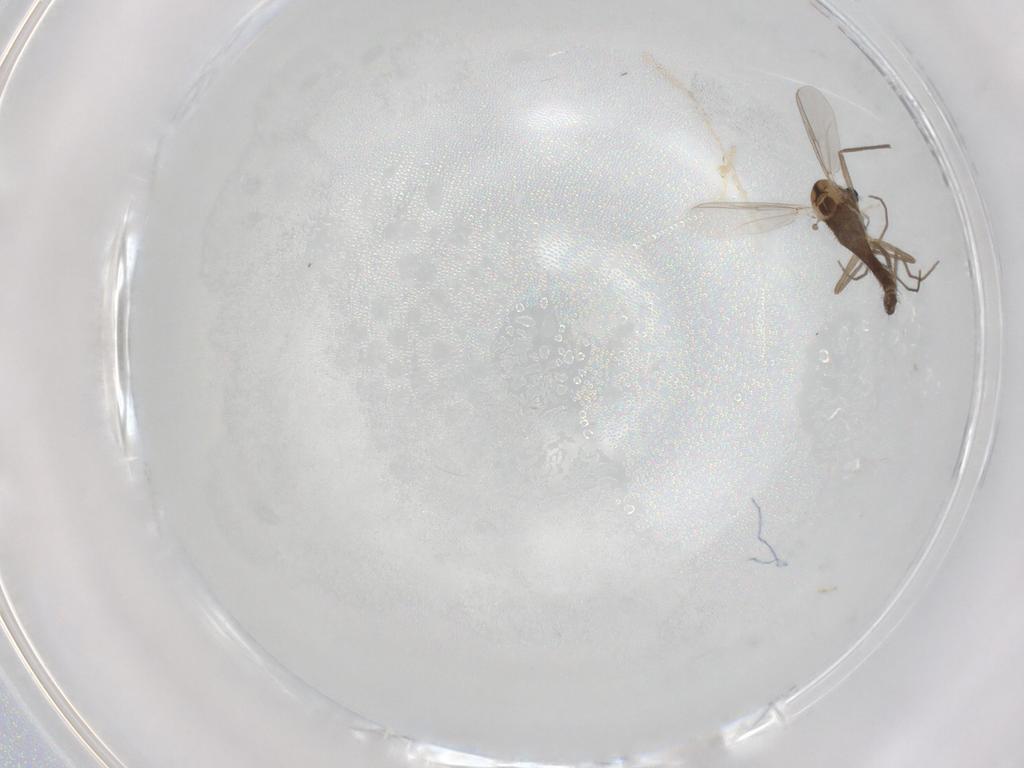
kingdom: Animalia
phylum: Arthropoda
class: Insecta
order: Diptera
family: Chironomidae
